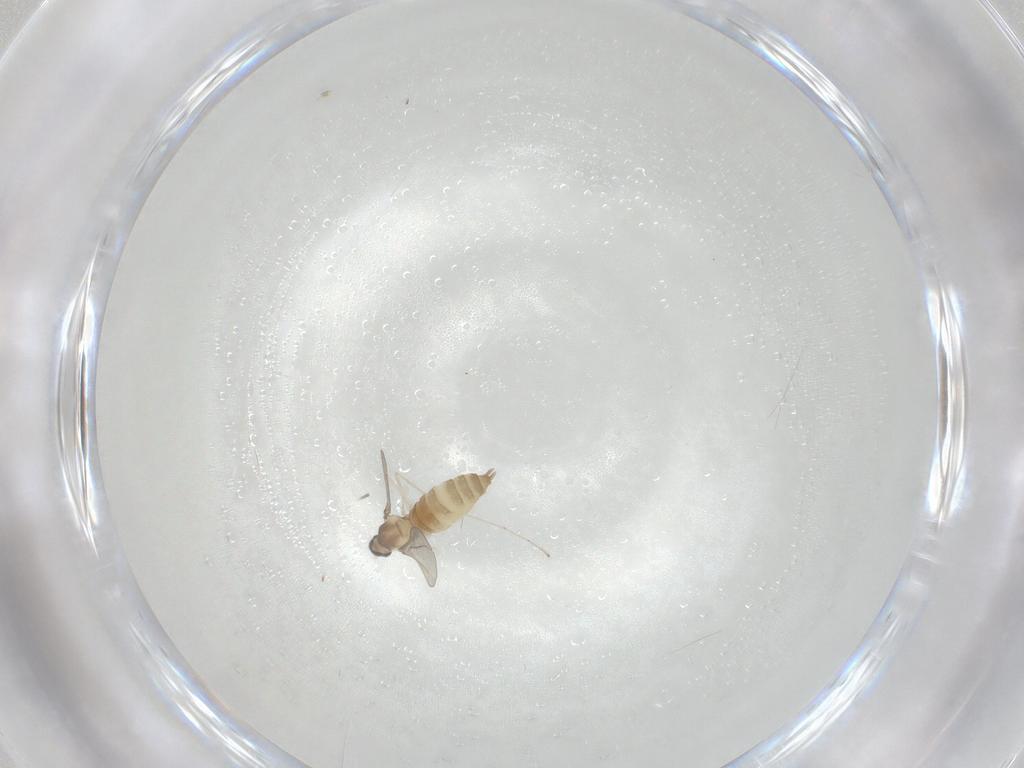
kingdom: Animalia
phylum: Arthropoda
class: Insecta
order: Diptera
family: Cecidomyiidae
